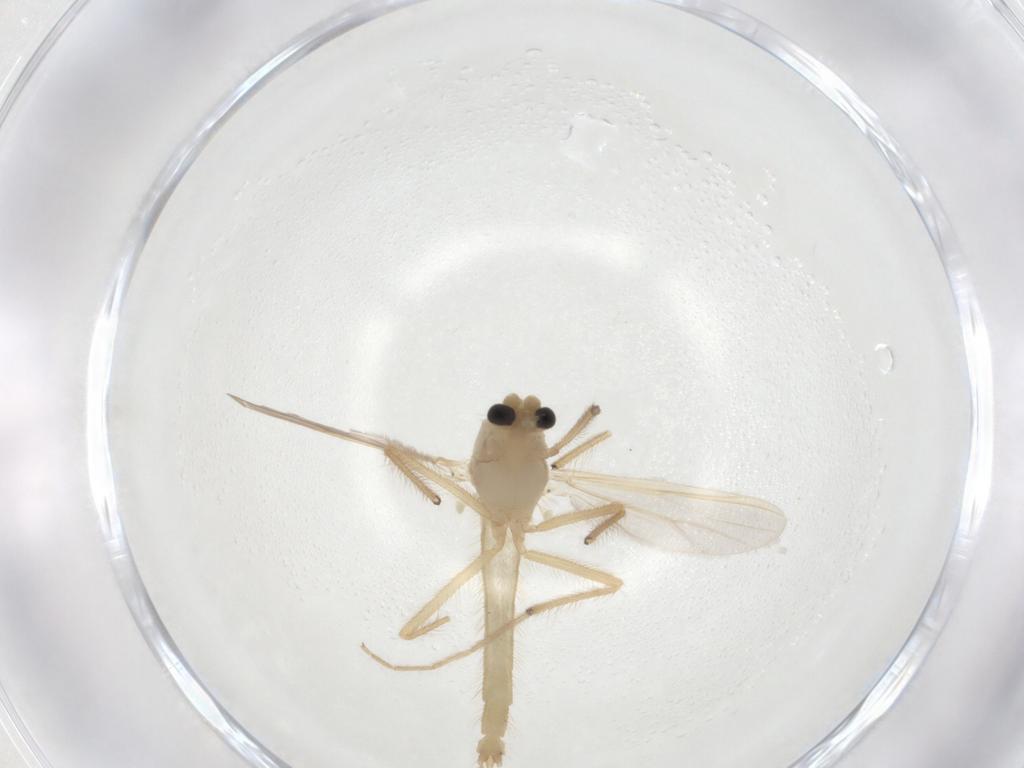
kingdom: Animalia
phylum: Arthropoda
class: Insecta
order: Diptera
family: Chironomidae
